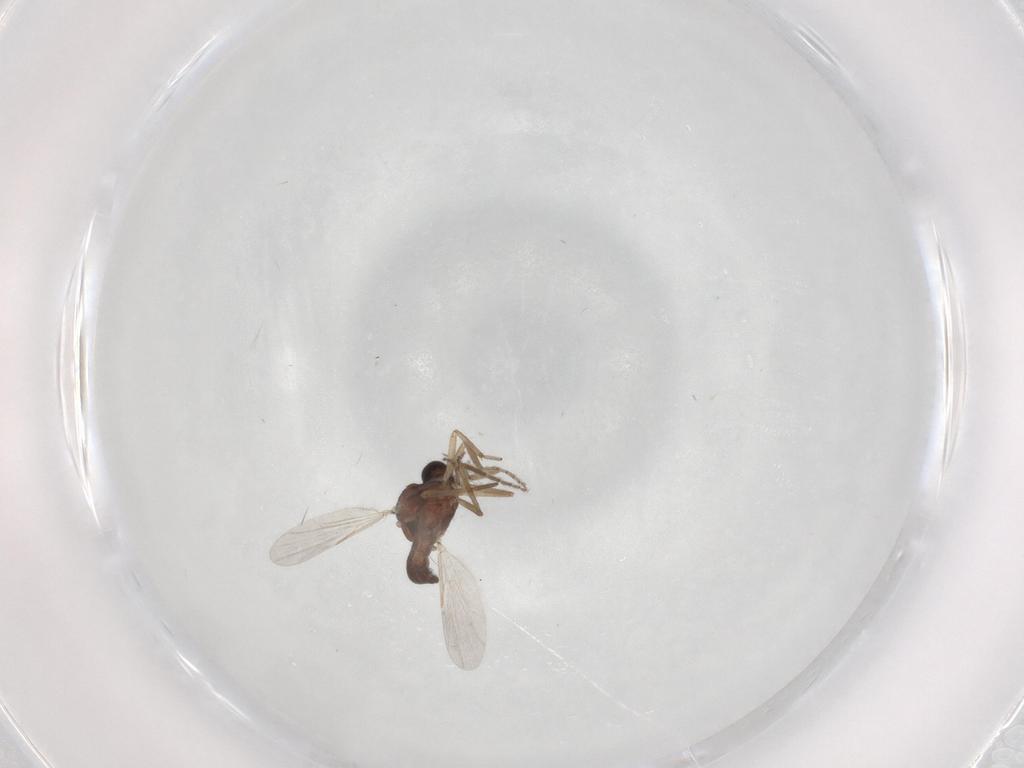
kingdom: Animalia
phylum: Arthropoda
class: Insecta
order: Diptera
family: Ceratopogonidae
